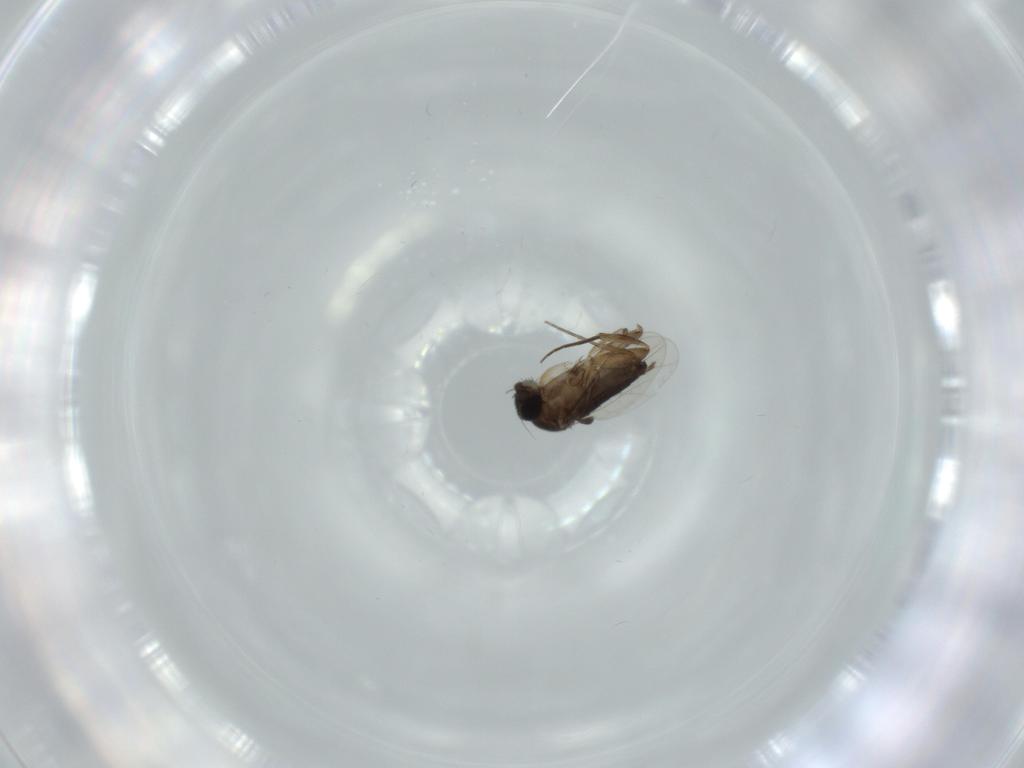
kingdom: Animalia
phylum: Arthropoda
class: Insecta
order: Diptera
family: Phoridae
